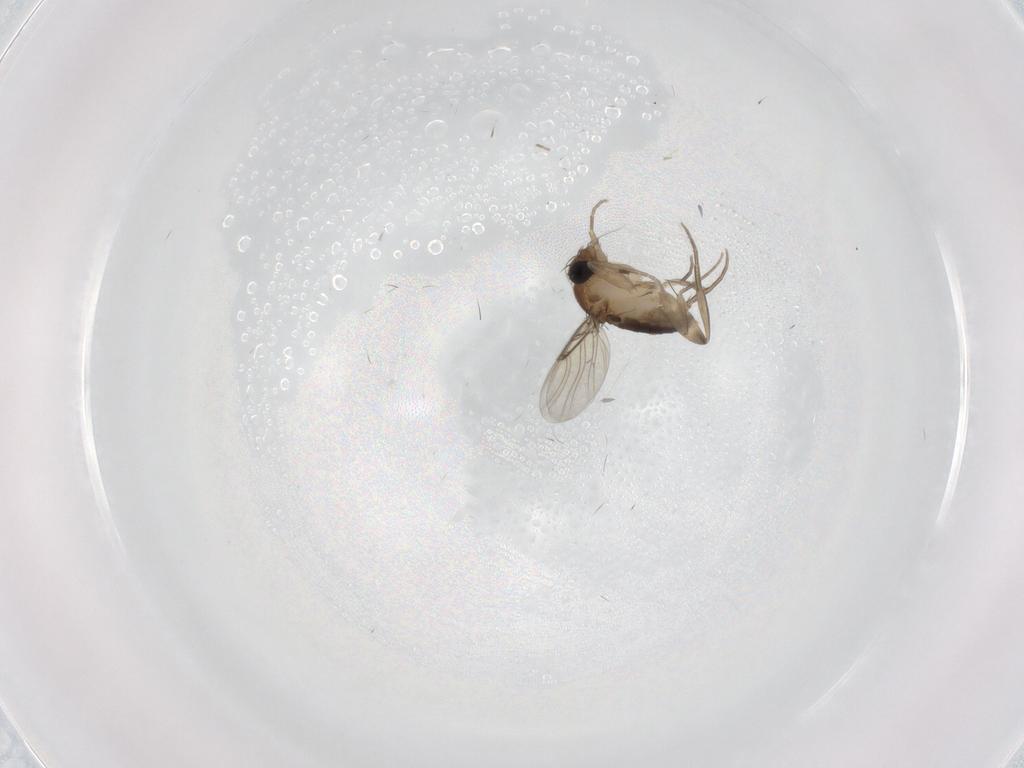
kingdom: Animalia
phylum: Arthropoda
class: Insecta
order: Diptera
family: Phoridae
